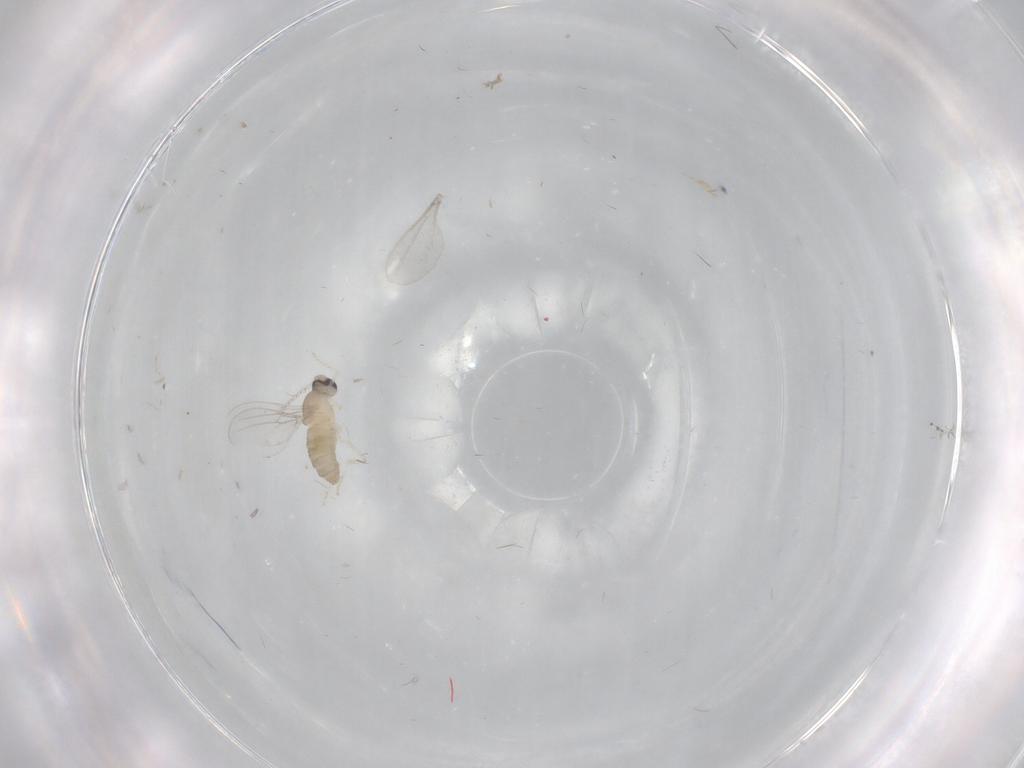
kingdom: Animalia
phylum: Arthropoda
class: Insecta
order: Diptera
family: Cecidomyiidae
